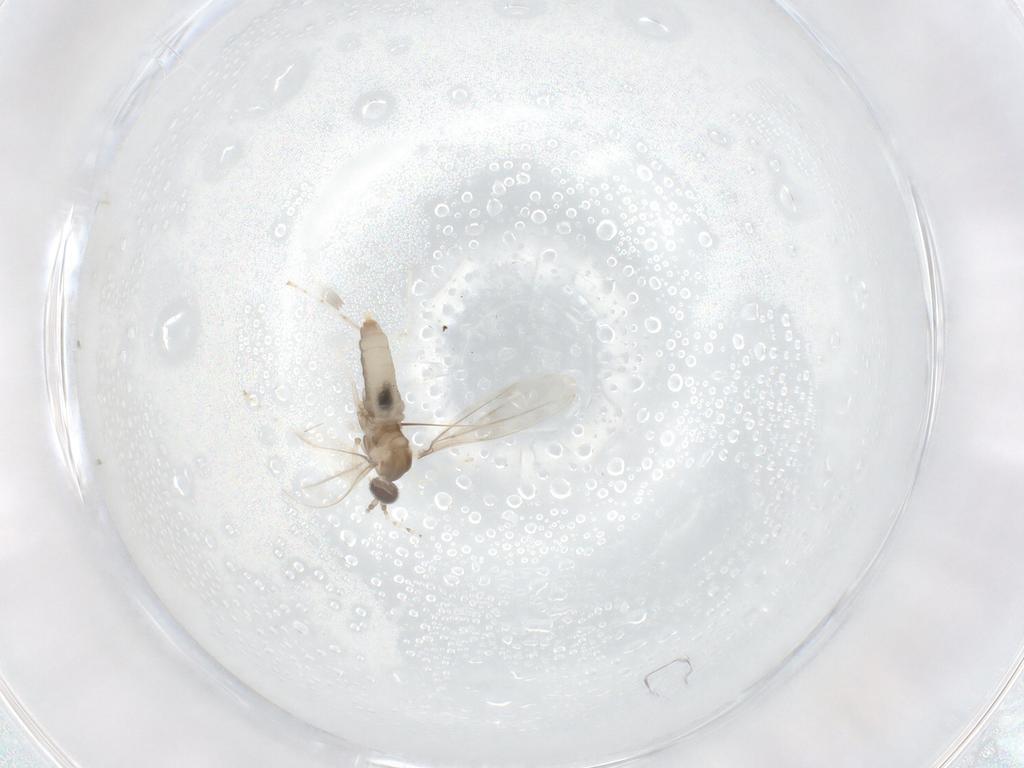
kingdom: Animalia
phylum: Arthropoda
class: Insecta
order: Diptera
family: Cecidomyiidae
